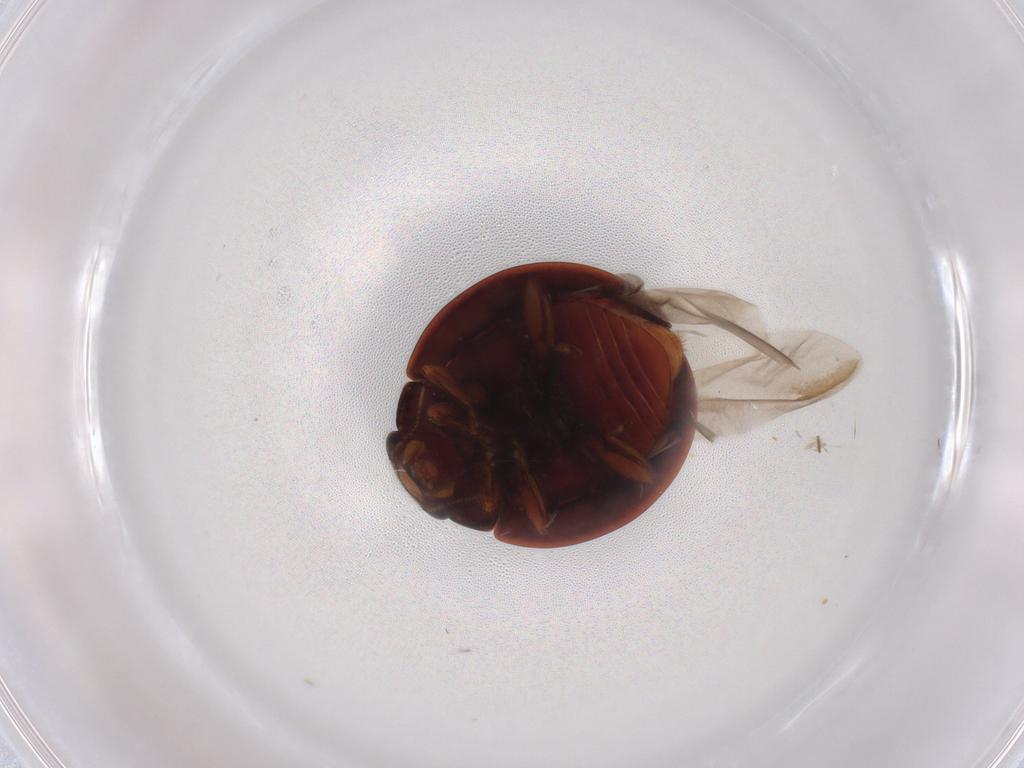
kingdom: Animalia
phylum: Arthropoda
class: Insecta
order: Coleoptera
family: Coccinellidae
